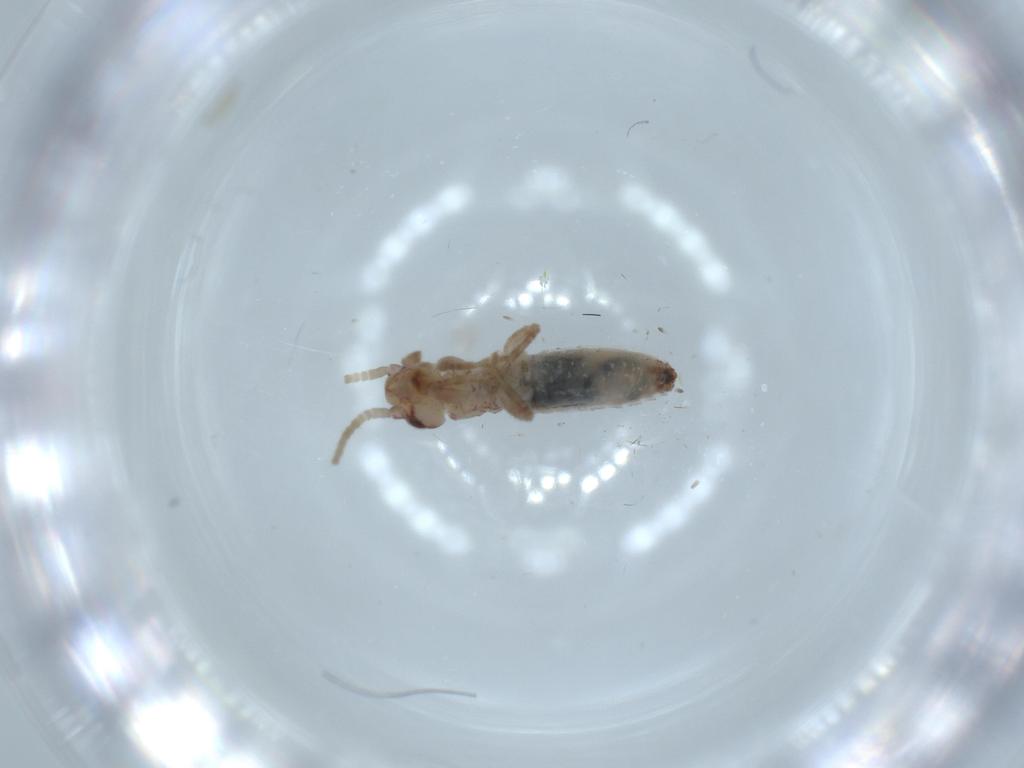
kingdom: Animalia
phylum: Arthropoda
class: Insecta
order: Orthoptera
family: Mogoplistidae
